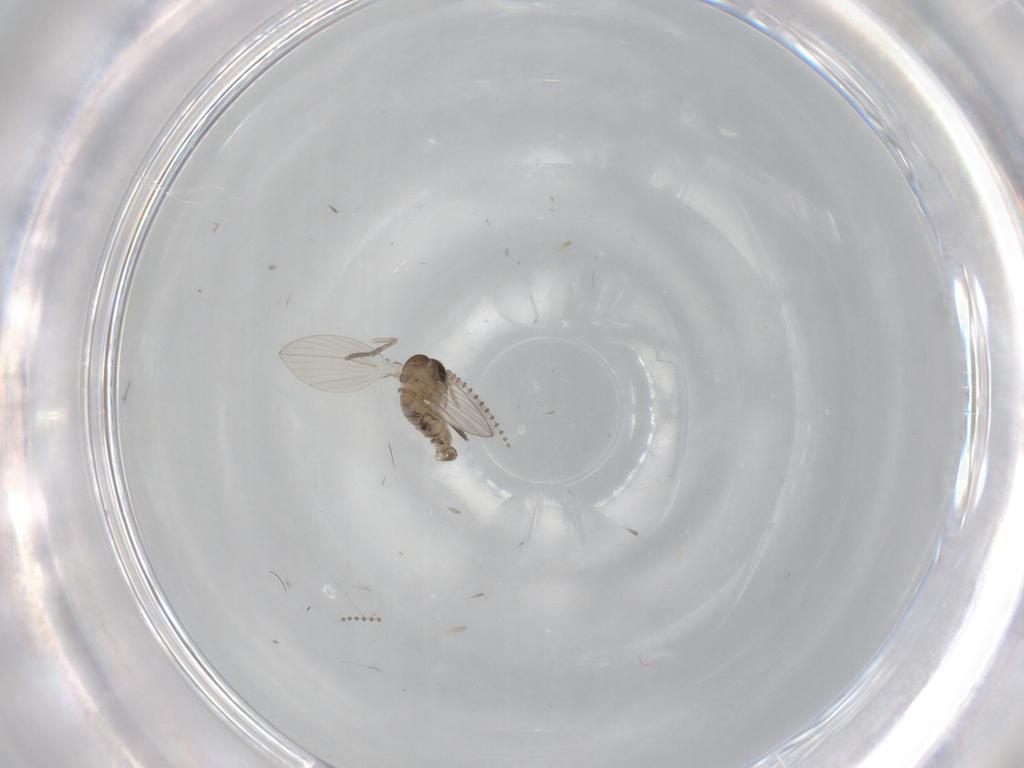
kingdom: Animalia
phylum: Arthropoda
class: Insecta
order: Diptera
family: Psychodidae
